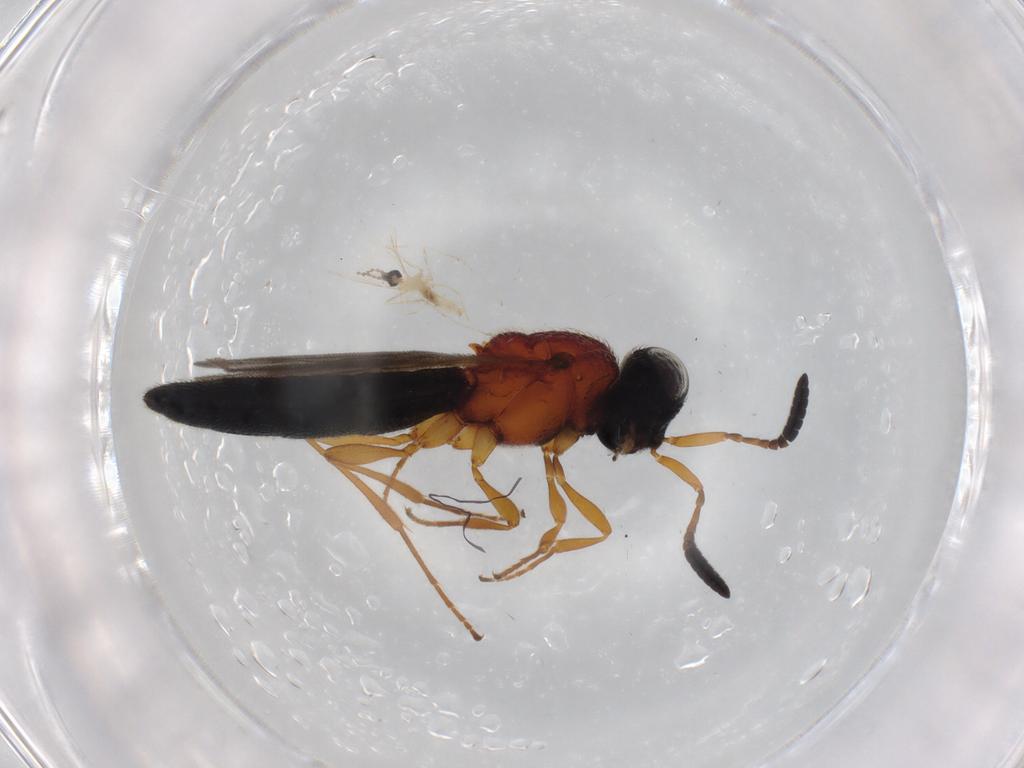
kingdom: Animalia
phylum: Arthropoda
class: Insecta
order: Diptera
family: Cecidomyiidae
